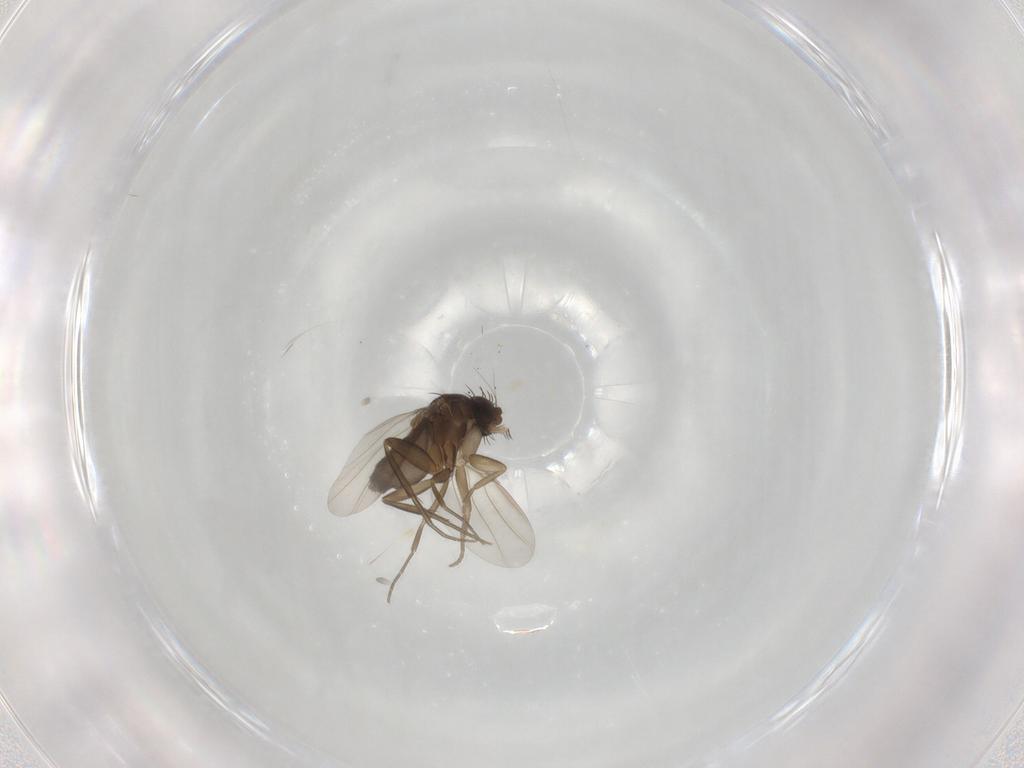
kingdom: Animalia
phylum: Arthropoda
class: Insecta
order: Diptera
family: Phoridae
